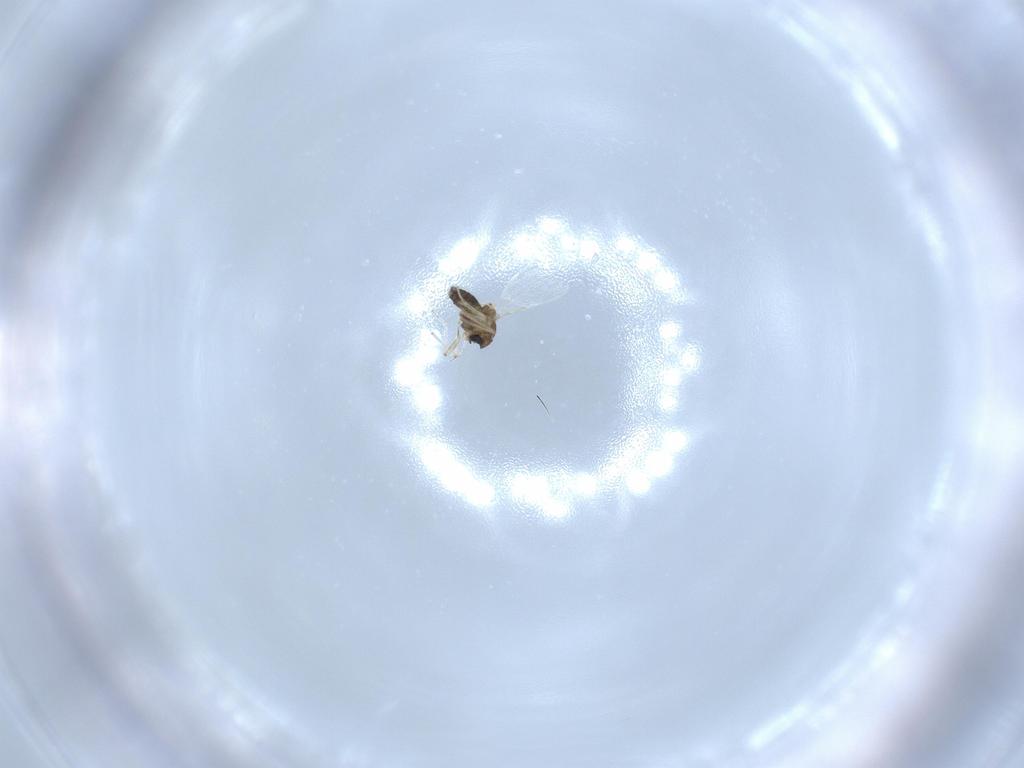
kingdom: Animalia
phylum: Arthropoda
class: Insecta
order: Diptera
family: Chironomidae
